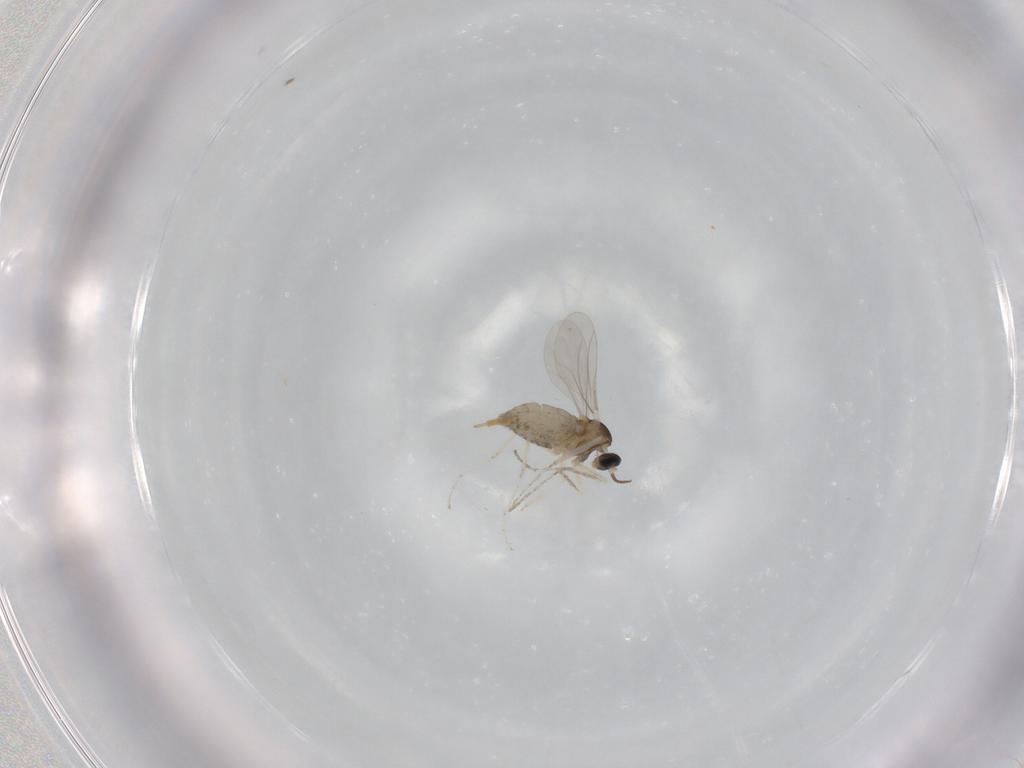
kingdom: Animalia
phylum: Arthropoda
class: Insecta
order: Diptera
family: Cecidomyiidae
